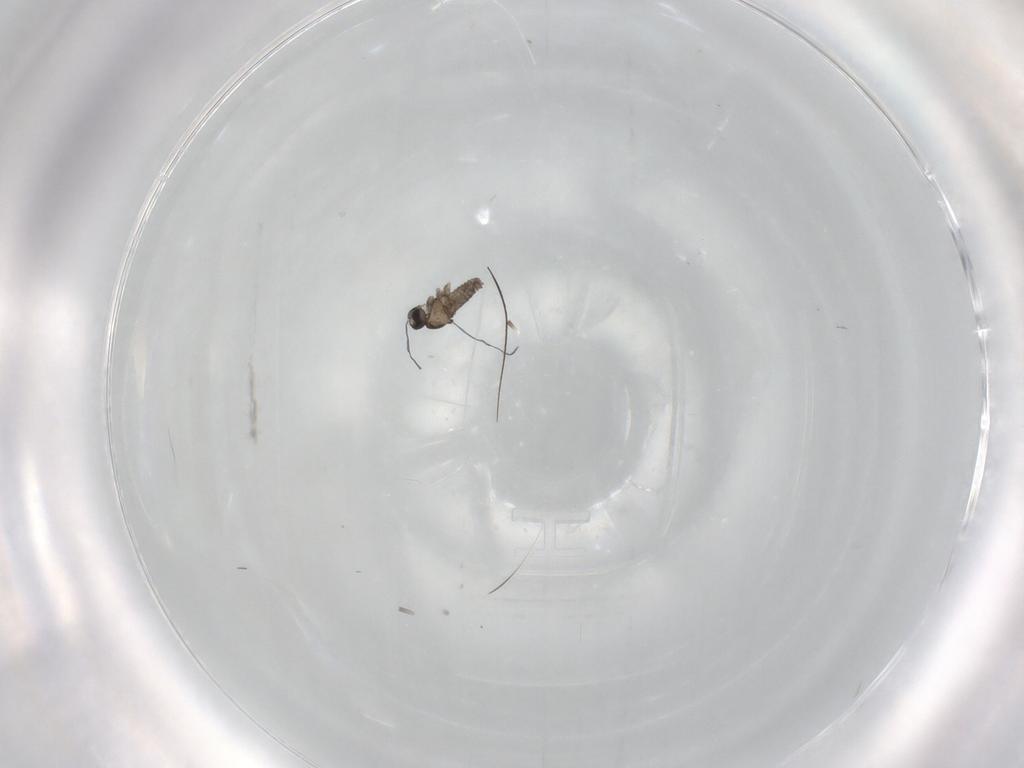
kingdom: Animalia
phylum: Arthropoda
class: Insecta
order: Diptera
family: Cecidomyiidae
